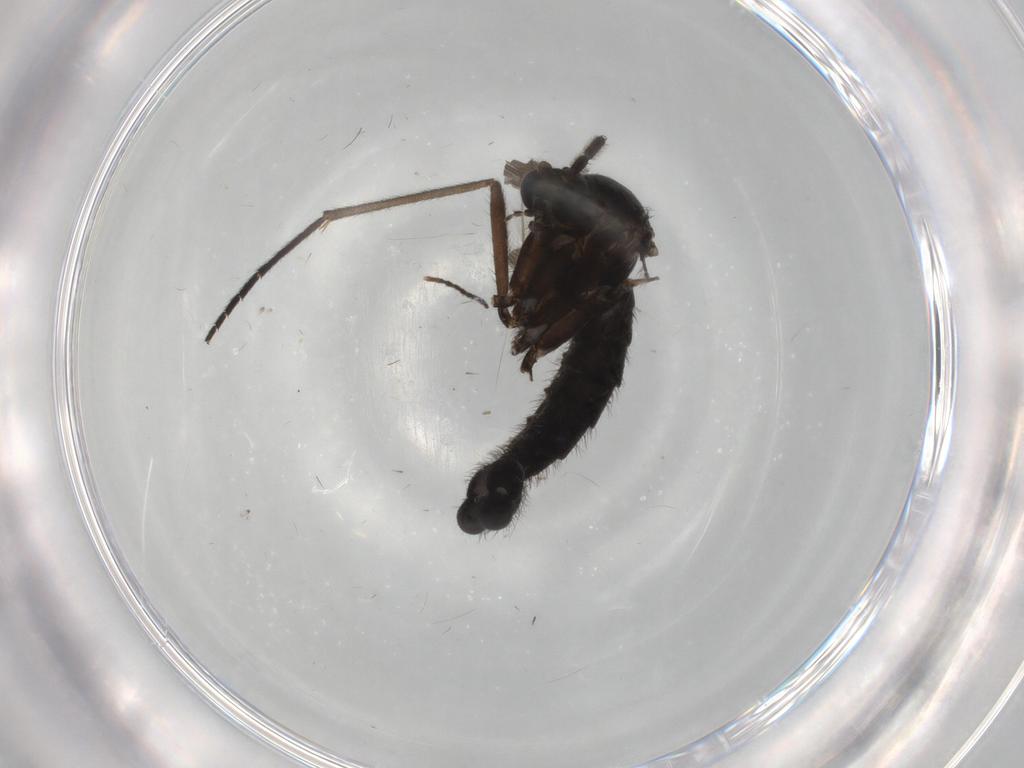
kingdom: Animalia
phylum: Arthropoda
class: Insecta
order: Diptera
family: Sciaridae
